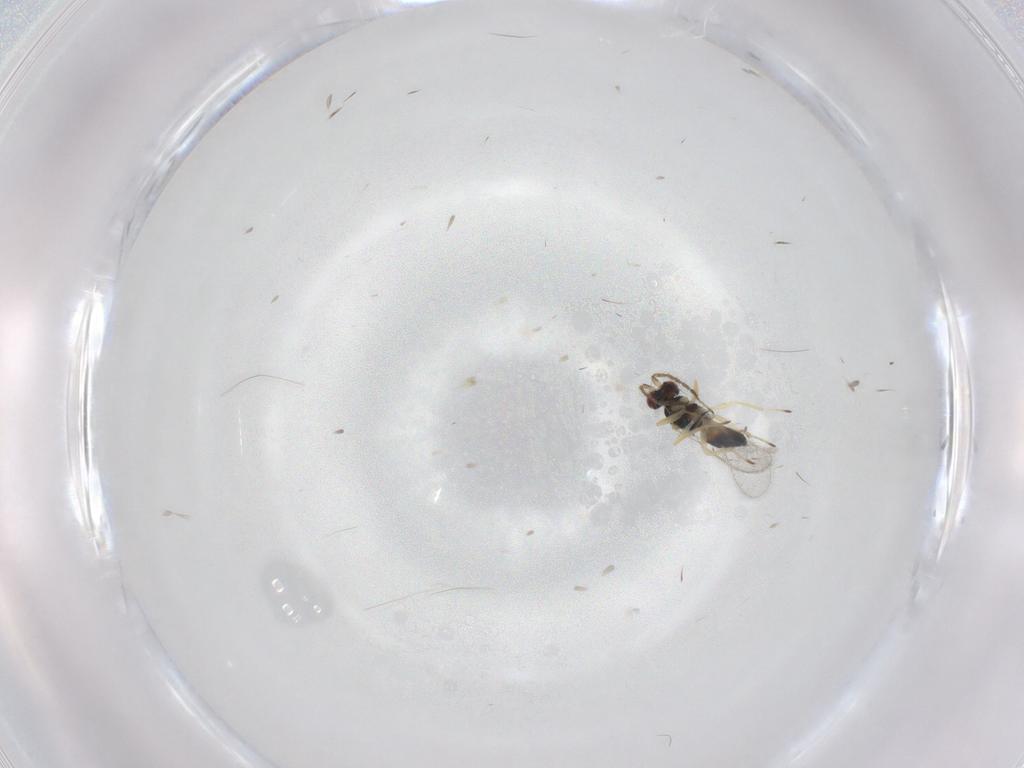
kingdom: Animalia
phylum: Arthropoda
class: Insecta
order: Hymenoptera
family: Eulophidae
